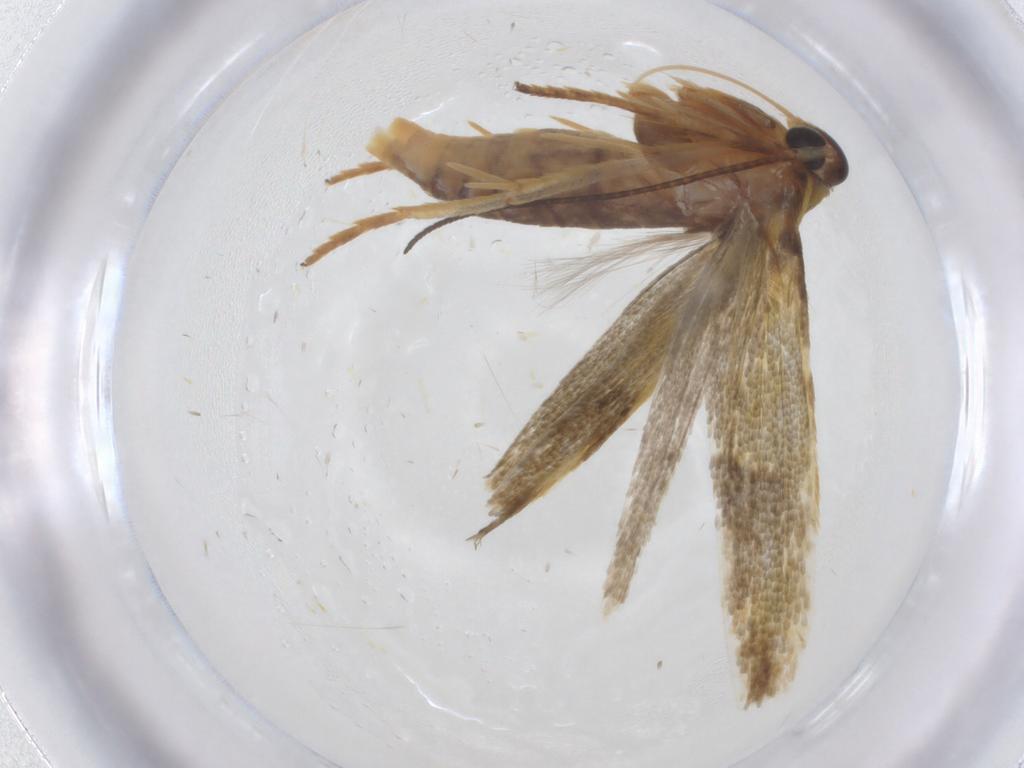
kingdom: Animalia
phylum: Arthropoda
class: Insecta
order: Lepidoptera
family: Stathmopodidae
